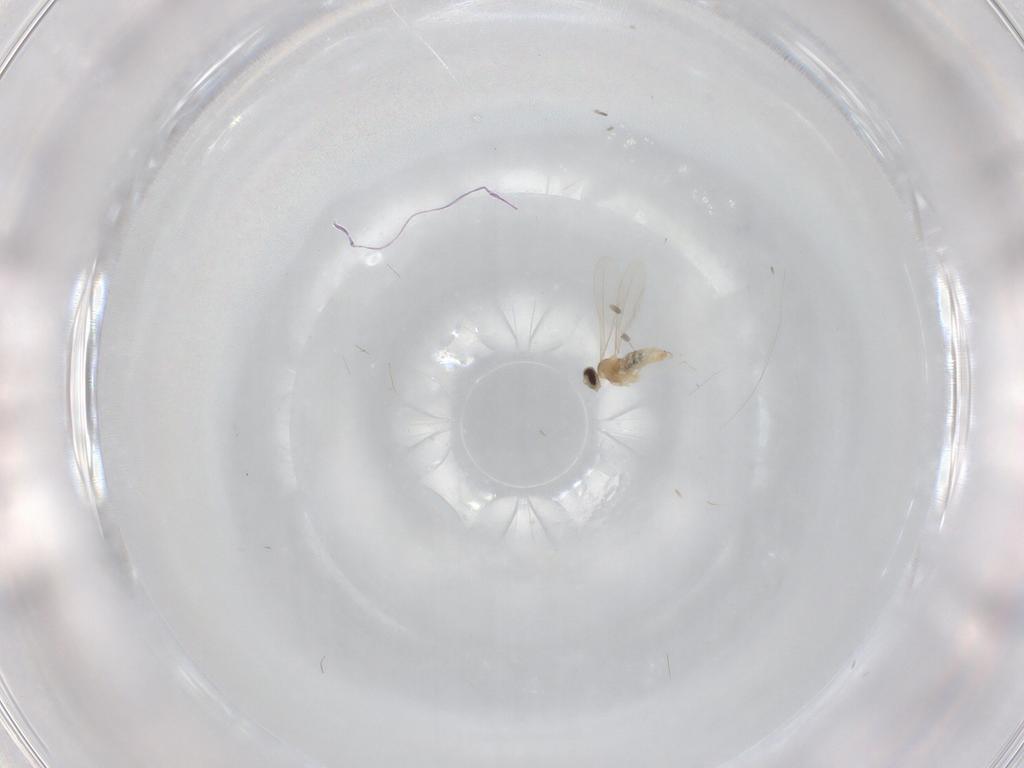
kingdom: Animalia
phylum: Arthropoda
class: Insecta
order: Diptera
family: Cecidomyiidae
